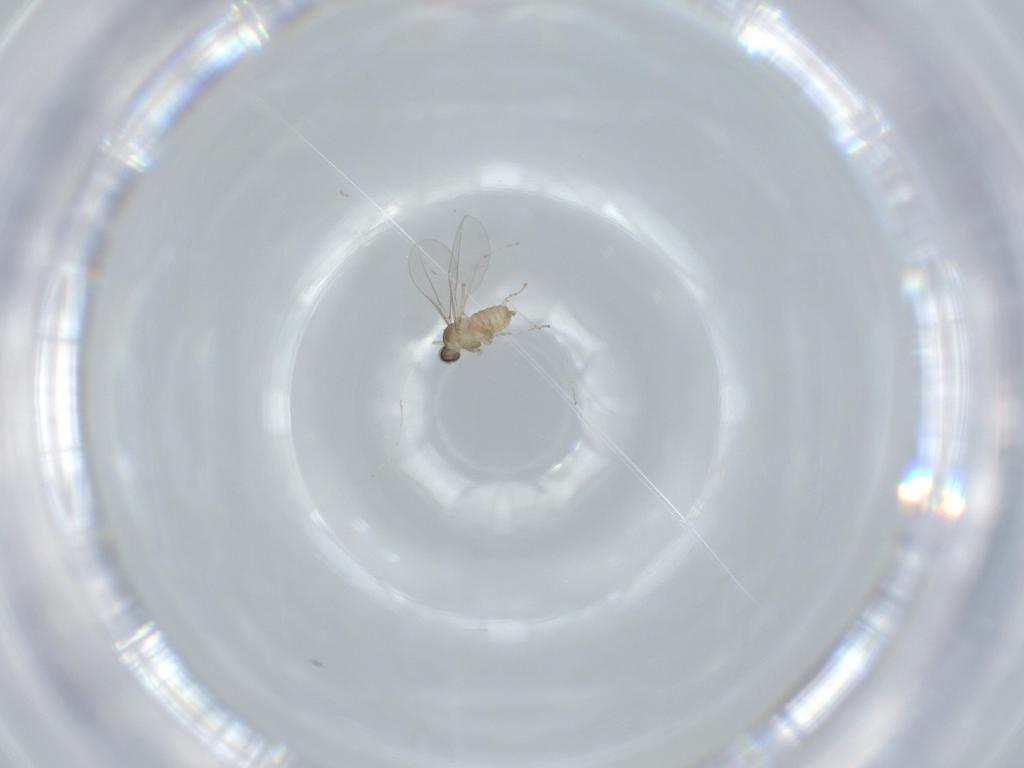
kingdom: Animalia
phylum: Arthropoda
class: Insecta
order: Diptera
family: Cecidomyiidae
